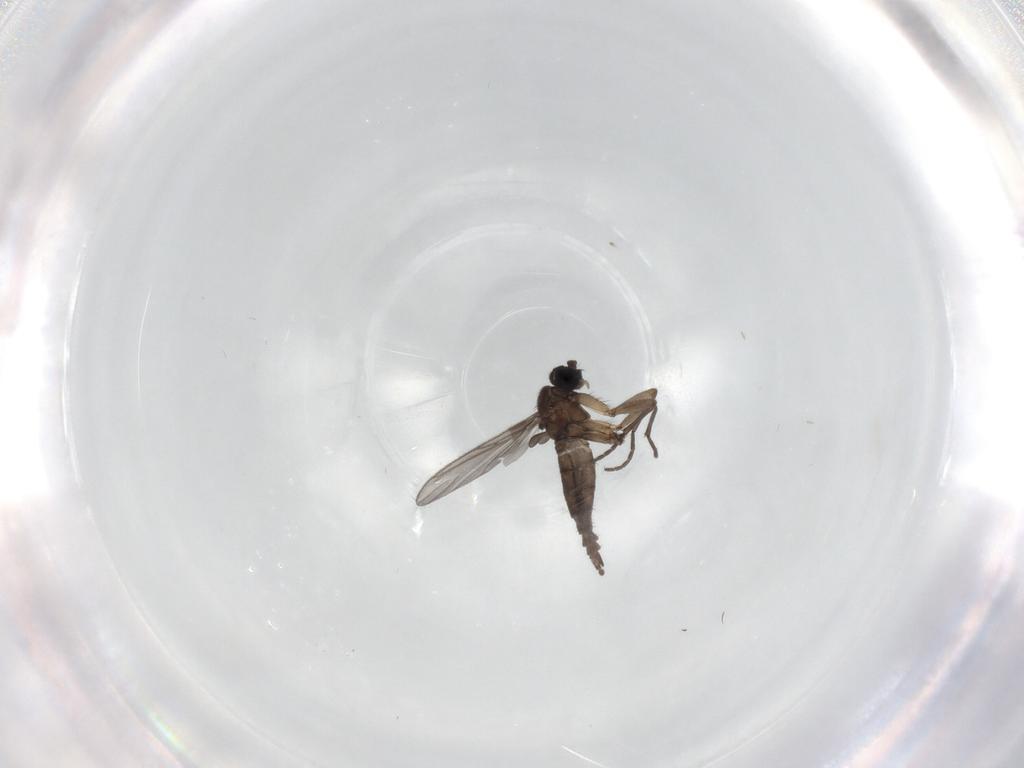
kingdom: Animalia
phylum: Arthropoda
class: Insecta
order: Diptera
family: Sciaridae
